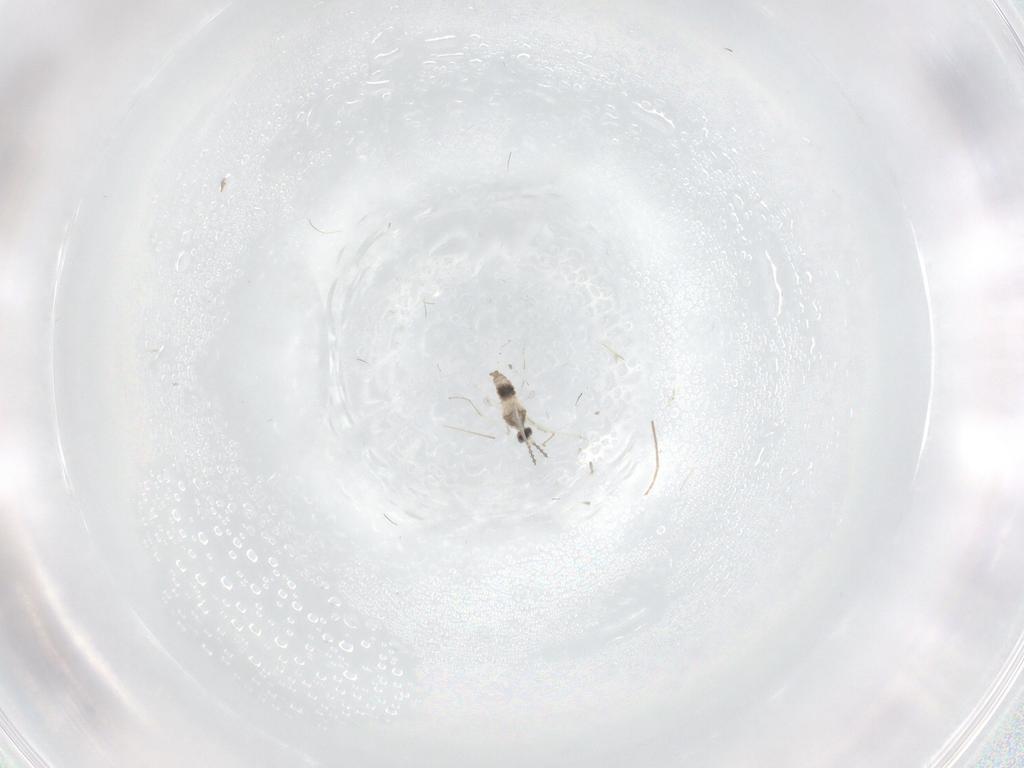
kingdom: Animalia
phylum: Arthropoda
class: Insecta
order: Diptera
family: Cecidomyiidae
